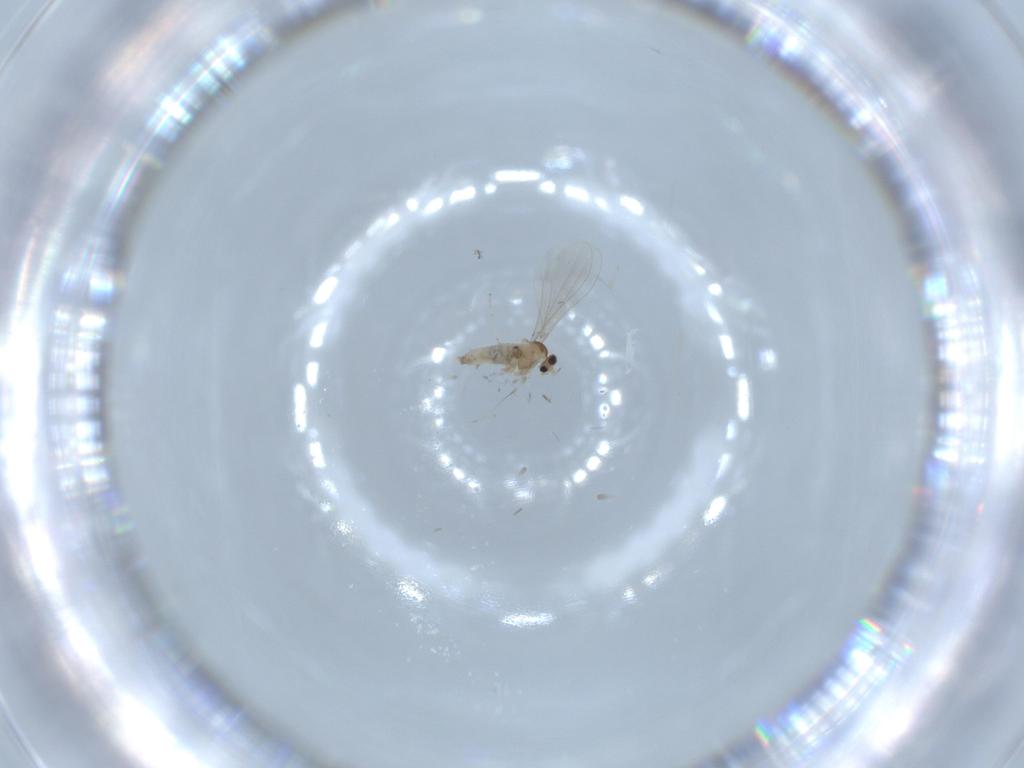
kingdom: Animalia
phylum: Arthropoda
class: Insecta
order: Diptera
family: Cecidomyiidae
